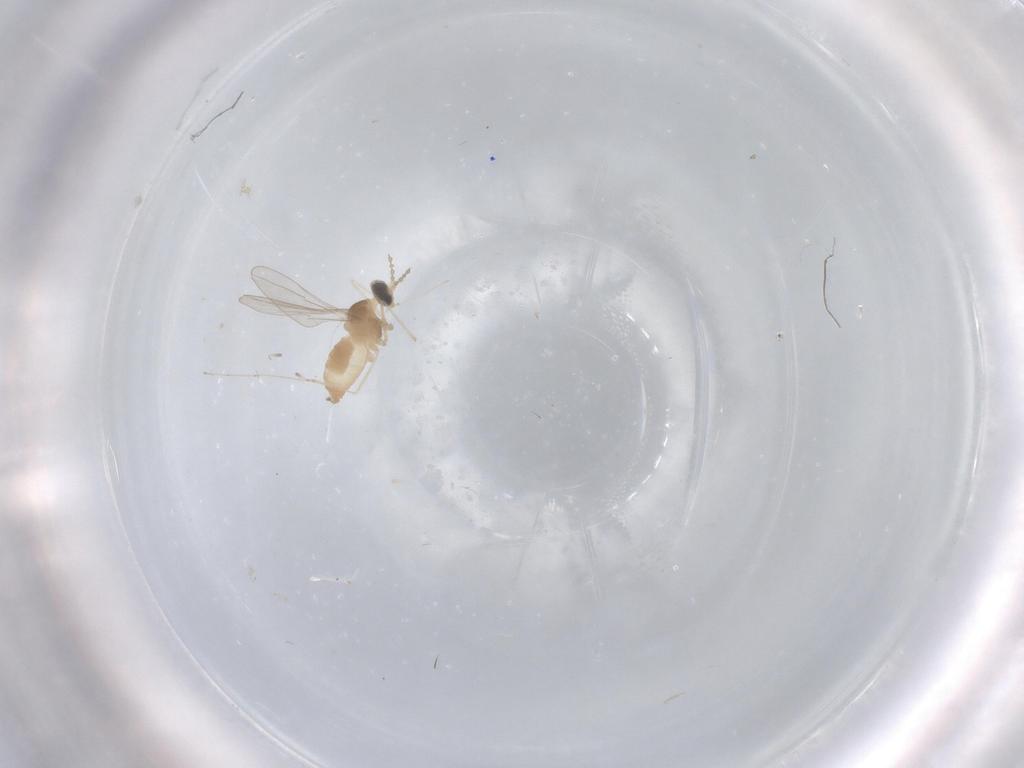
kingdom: Animalia
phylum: Arthropoda
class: Insecta
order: Diptera
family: Cecidomyiidae
